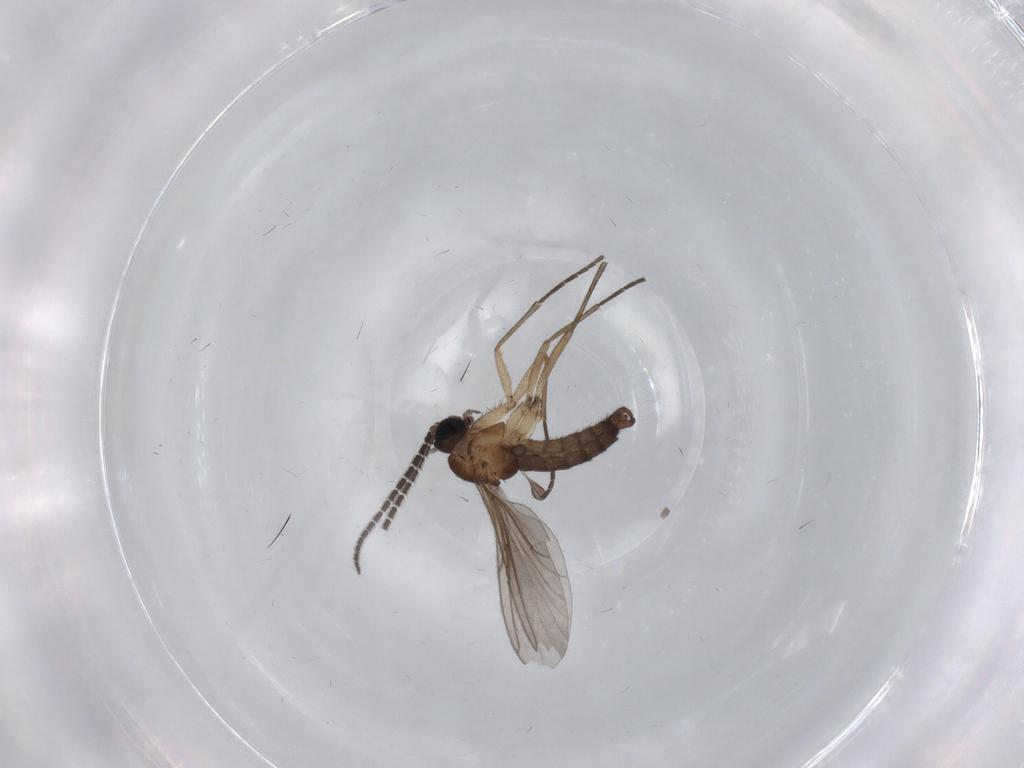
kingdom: Animalia
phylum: Arthropoda
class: Insecta
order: Diptera
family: Sciaridae
